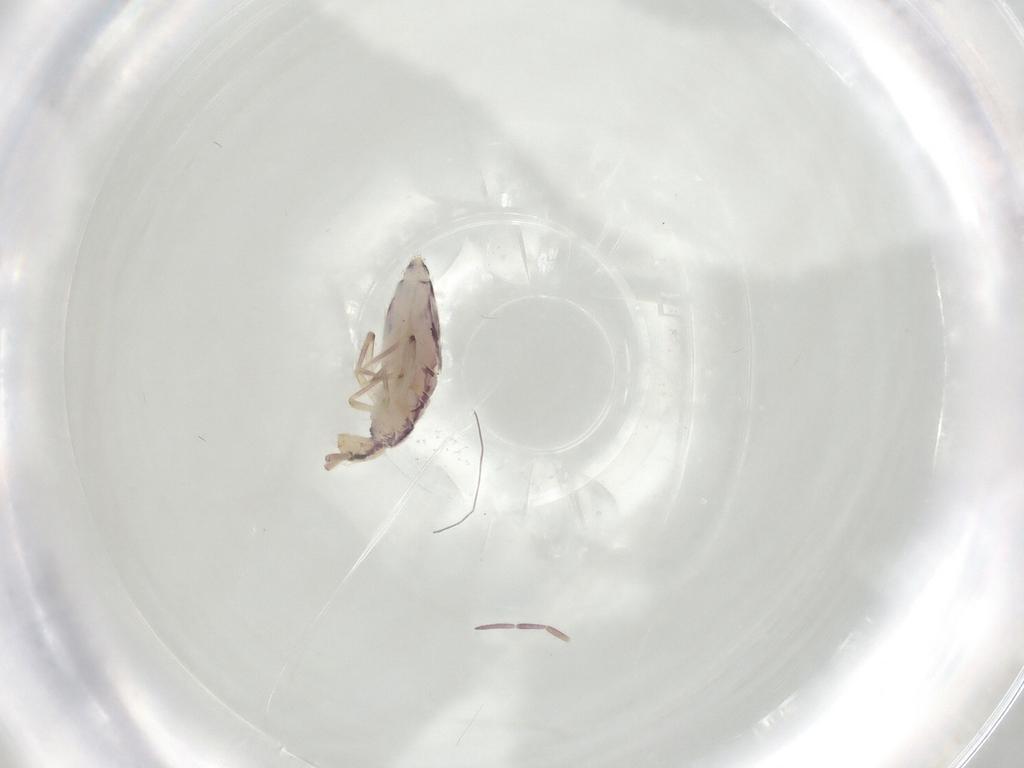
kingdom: Animalia
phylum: Arthropoda
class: Collembola
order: Entomobryomorpha
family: Entomobryidae
